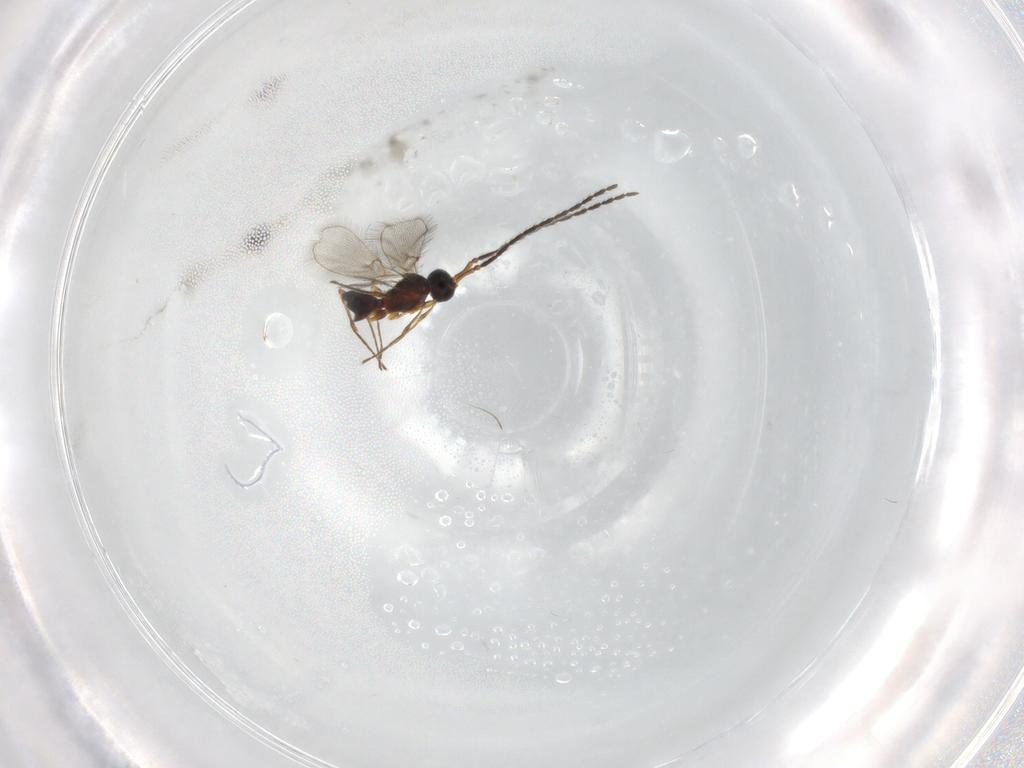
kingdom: Animalia
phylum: Arthropoda
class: Insecta
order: Hymenoptera
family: Diapriidae
